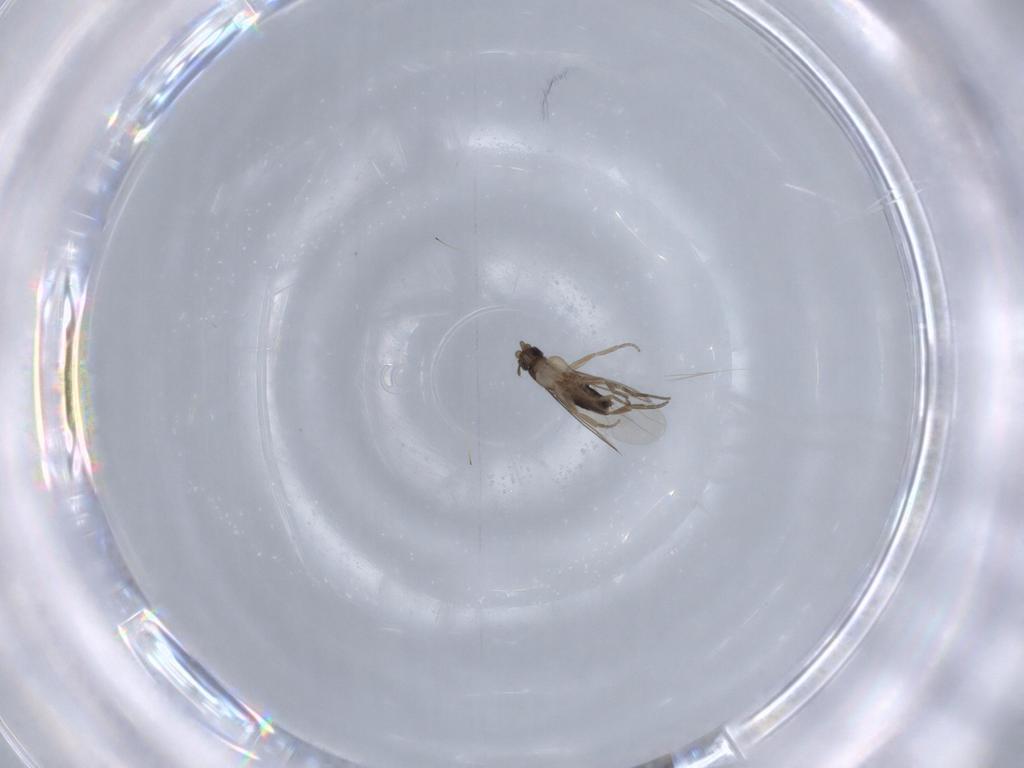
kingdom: Animalia
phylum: Arthropoda
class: Insecta
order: Diptera
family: Phoridae
